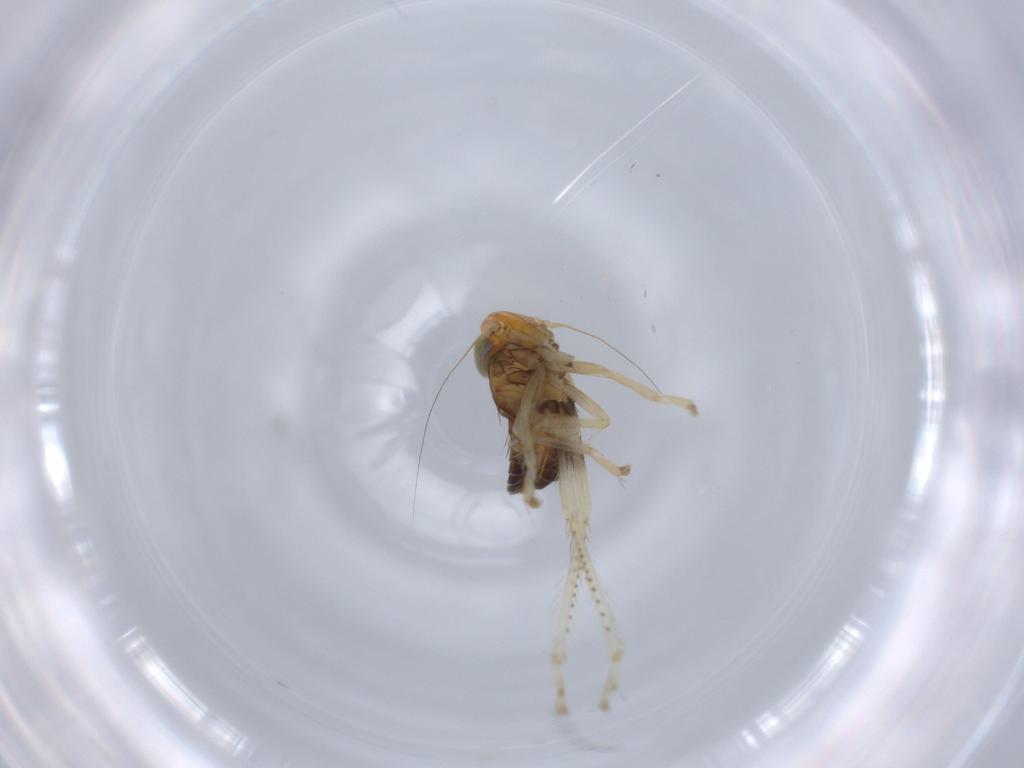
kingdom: Animalia
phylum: Arthropoda
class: Insecta
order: Hemiptera
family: Cicadellidae
